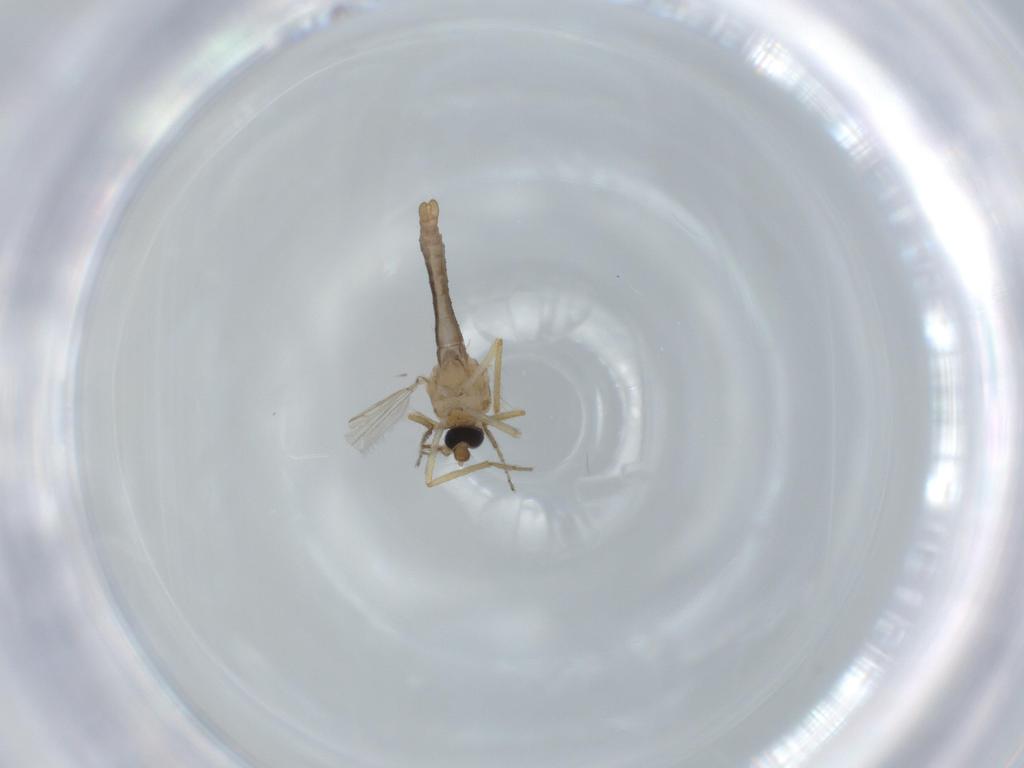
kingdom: Animalia
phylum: Arthropoda
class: Insecta
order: Diptera
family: Ceratopogonidae
